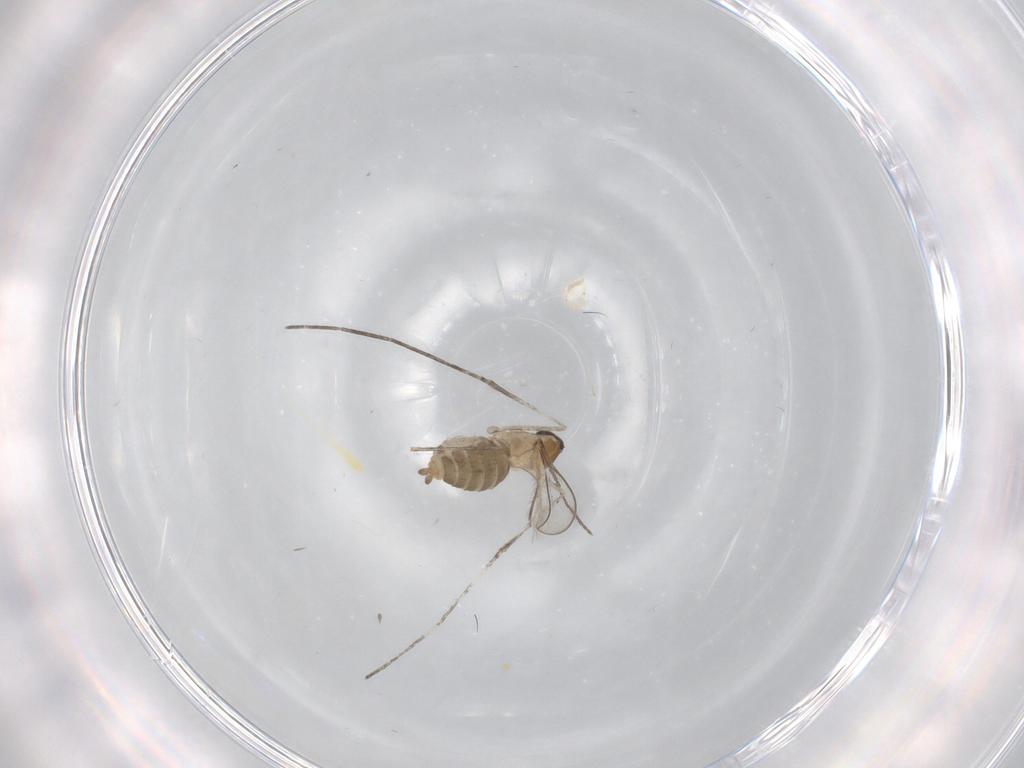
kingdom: Animalia
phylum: Arthropoda
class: Insecta
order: Diptera
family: Cecidomyiidae
